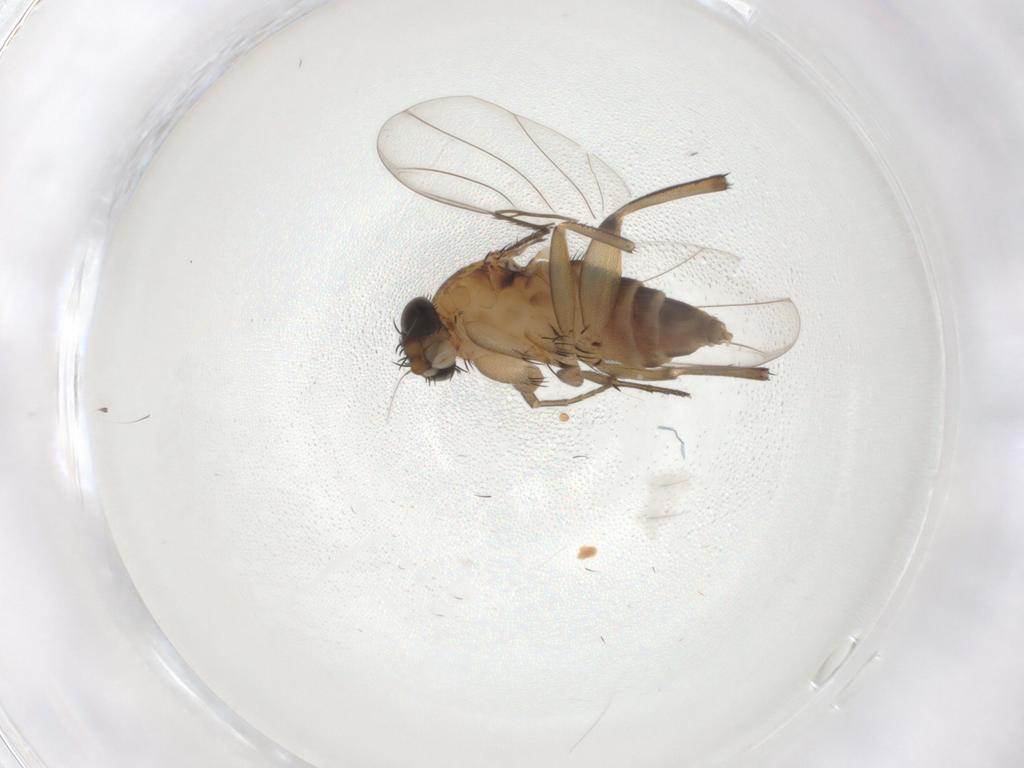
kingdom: Animalia
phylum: Arthropoda
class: Insecta
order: Diptera
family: Phoridae
